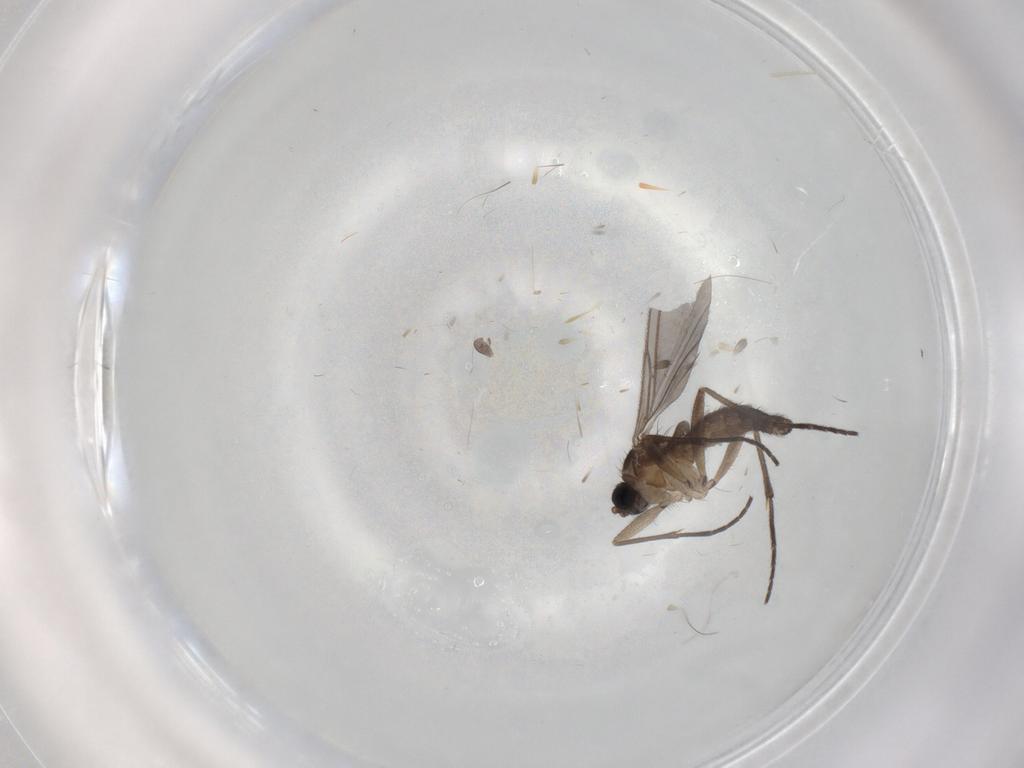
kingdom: Animalia
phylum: Arthropoda
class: Insecta
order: Diptera
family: Sciaridae
